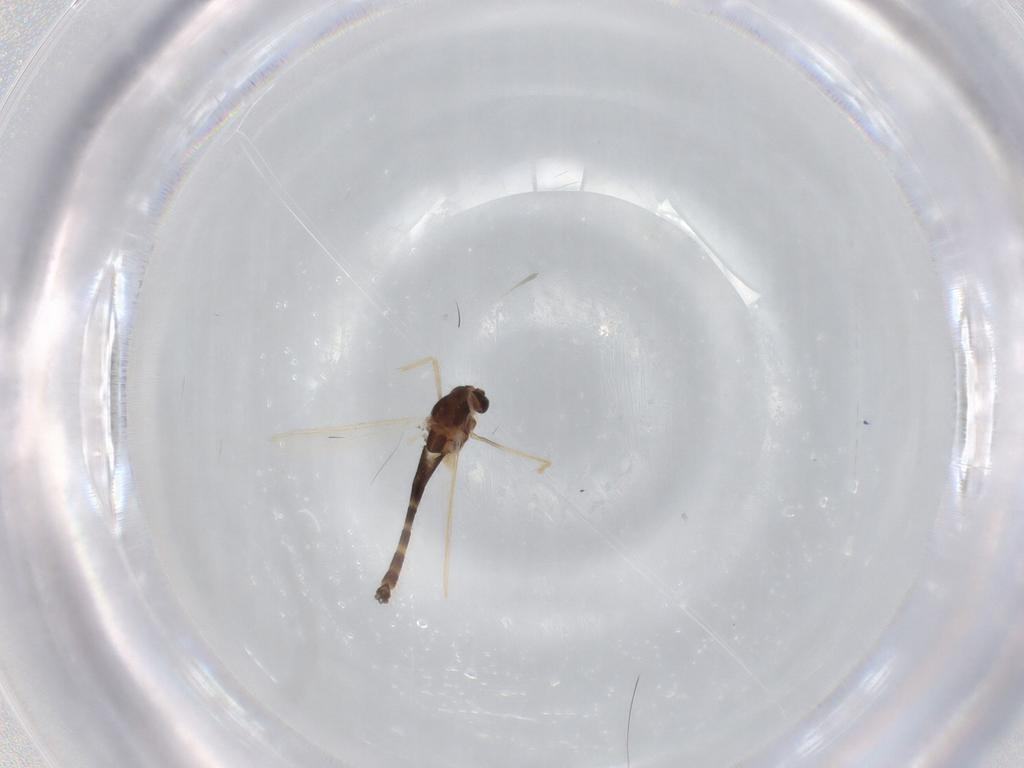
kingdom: Animalia
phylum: Arthropoda
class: Insecta
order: Diptera
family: Chironomidae
